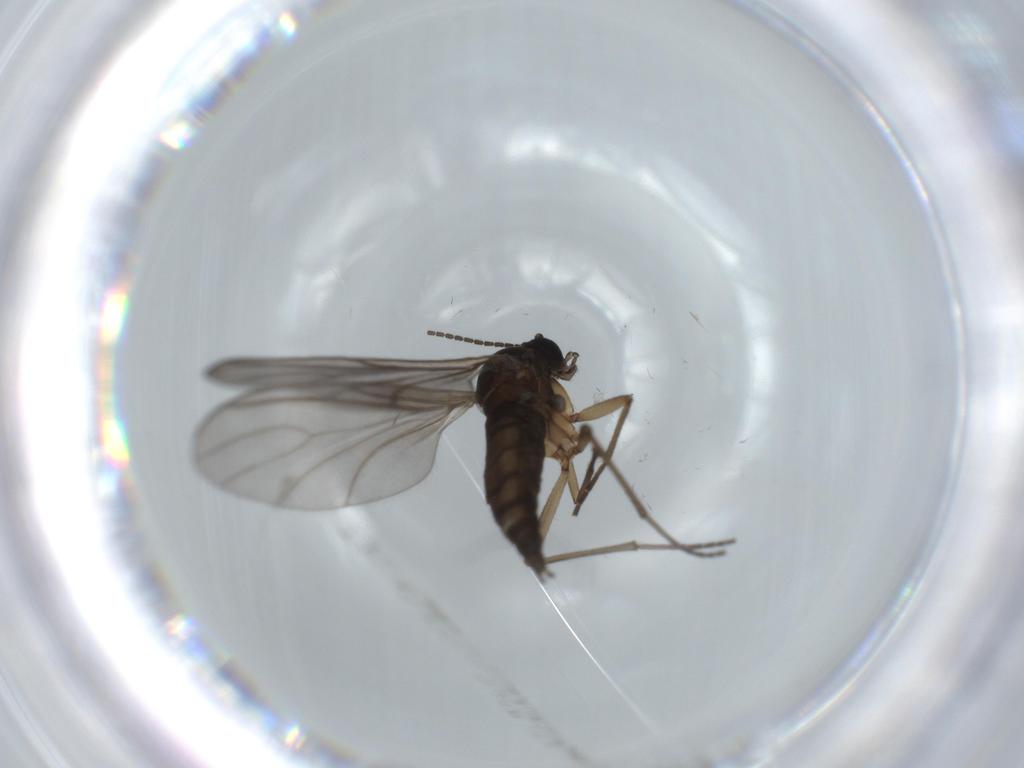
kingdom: Animalia
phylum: Arthropoda
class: Insecta
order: Diptera
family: Sciaridae
